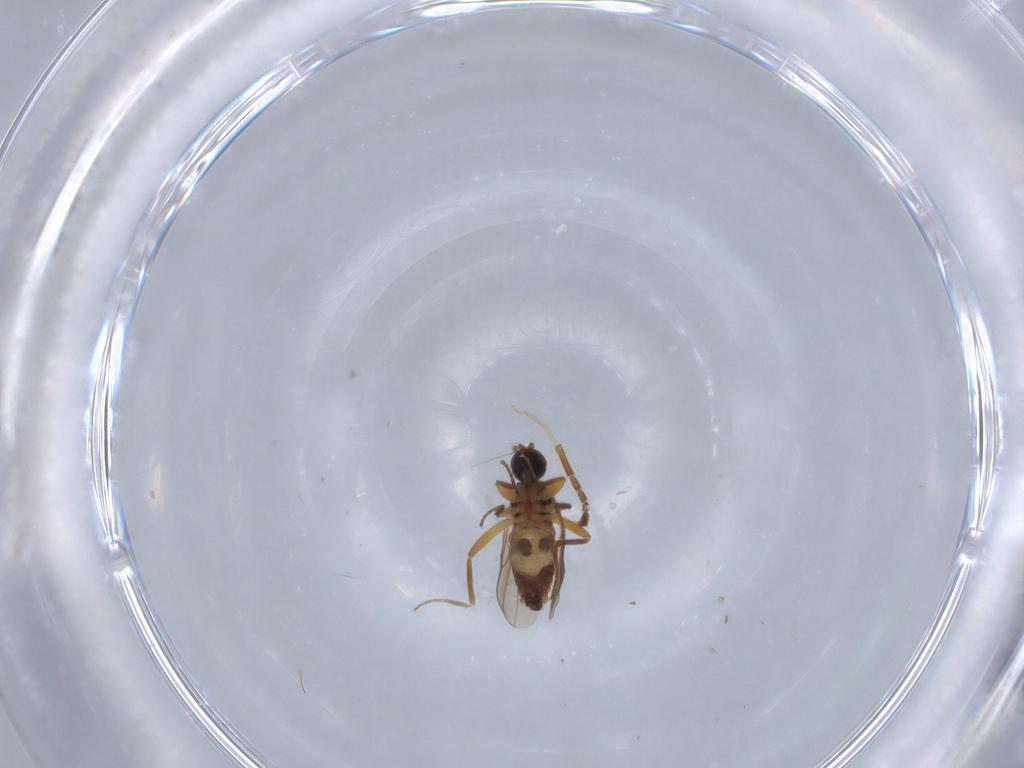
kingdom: Animalia
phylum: Arthropoda
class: Insecta
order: Diptera
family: Hybotidae
